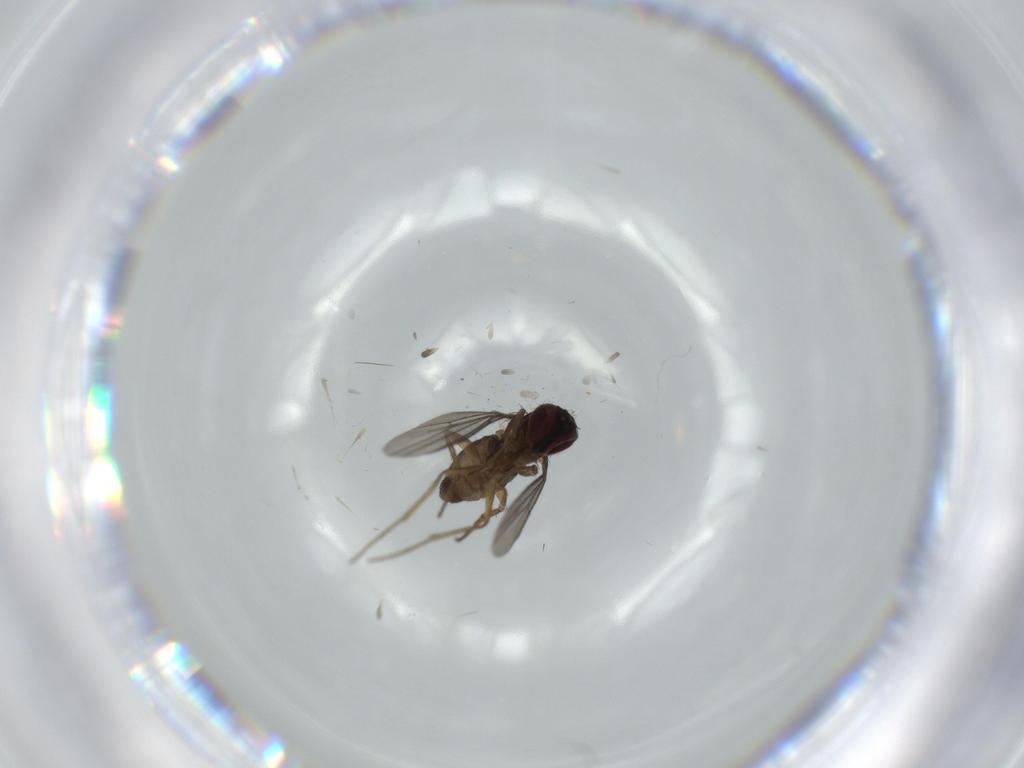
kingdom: Animalia
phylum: Arthropoda
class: Insecta
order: Diptera
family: Dolichopodidae
